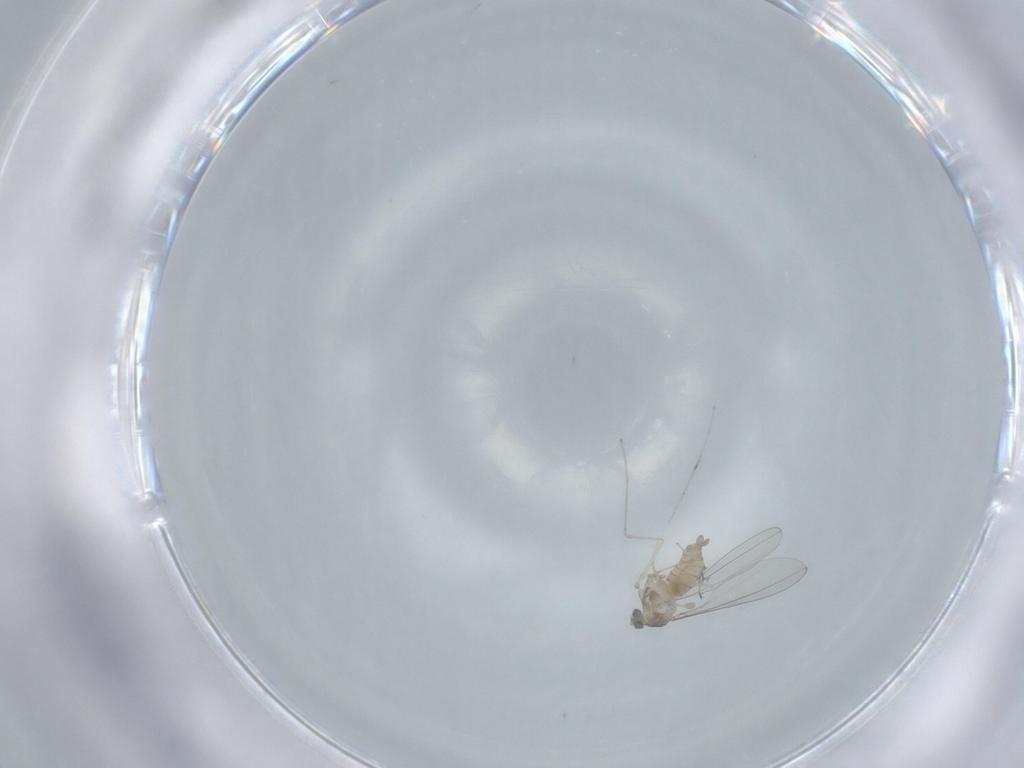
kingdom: Animalia
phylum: Arthropoda
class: Insecta
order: Diptera
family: Cecidomyiidae
